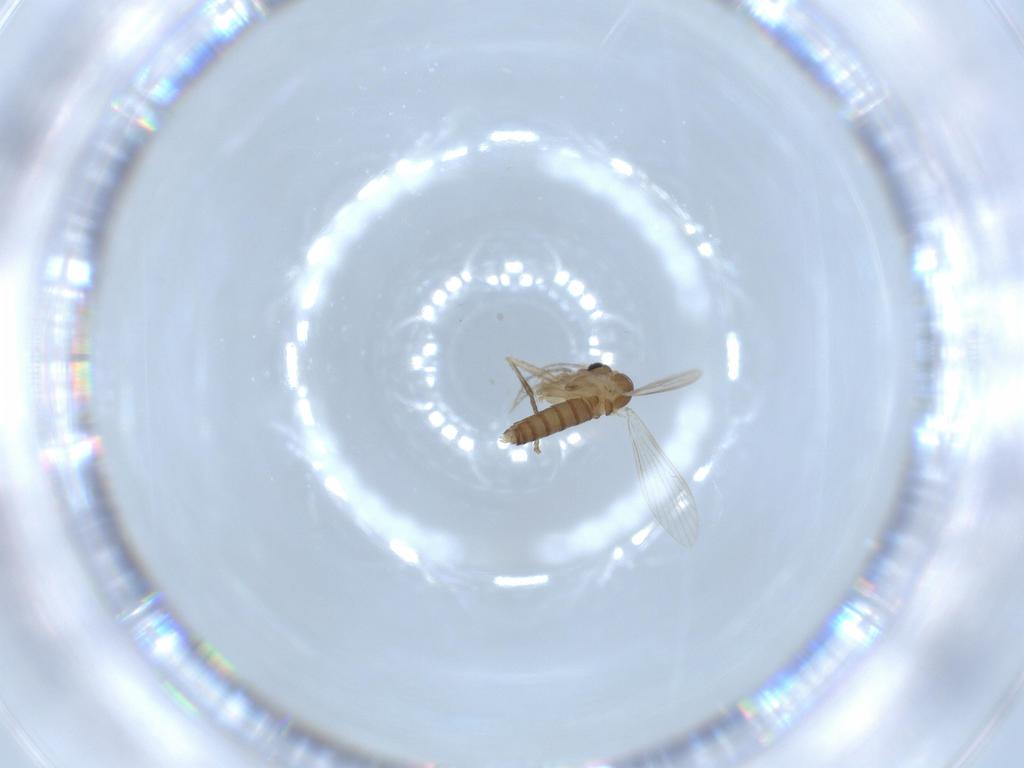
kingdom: Animalia
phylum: Arthropoda
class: Insecta
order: Diptera
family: Psychodidae
